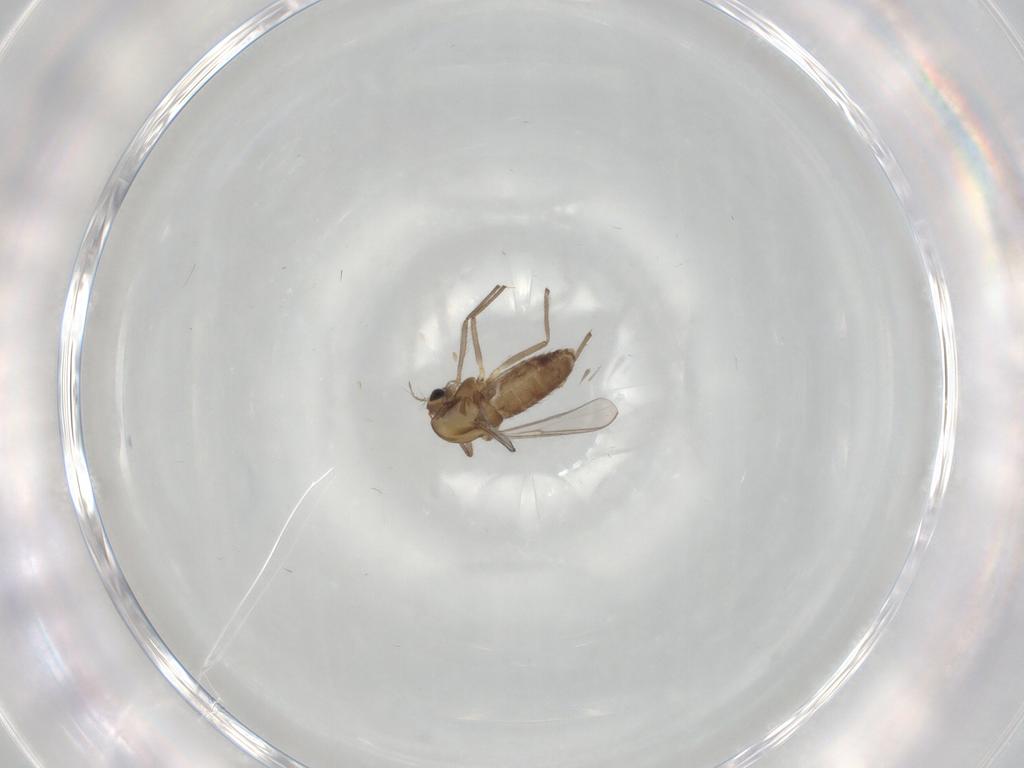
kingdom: Animalia
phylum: Arthropoda
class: Insecta
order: Diptera
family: Chironomidae
